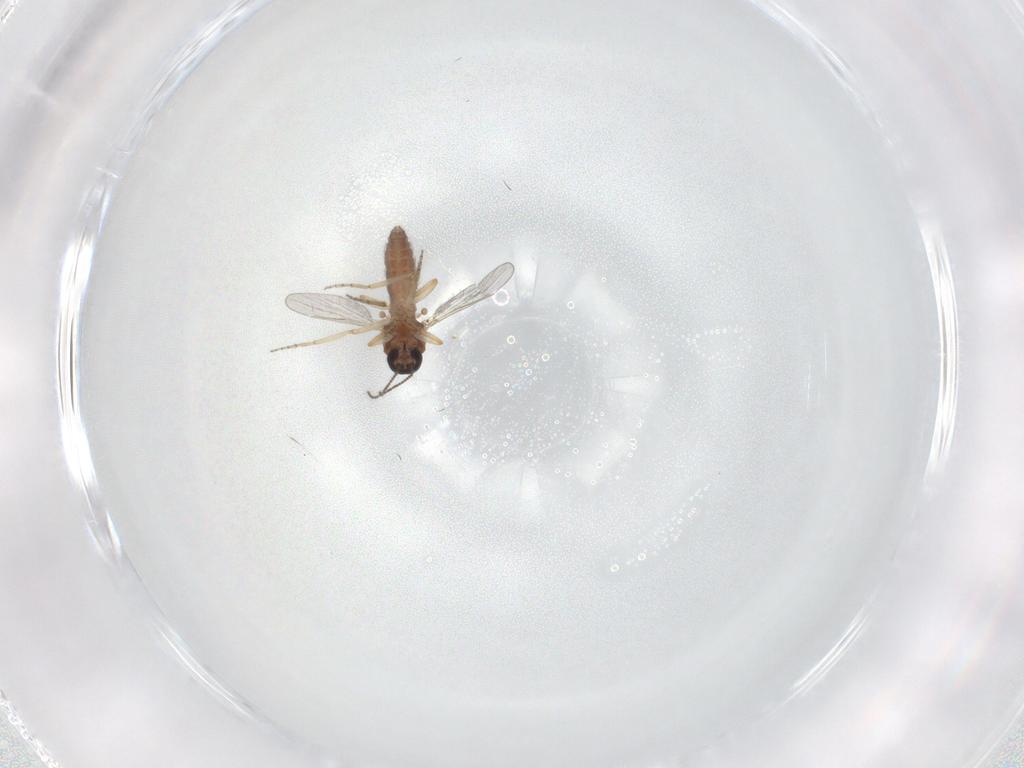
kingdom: Animalia
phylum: Arthropoda
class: Insecta
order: Diptera
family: Ceratopogonidae
